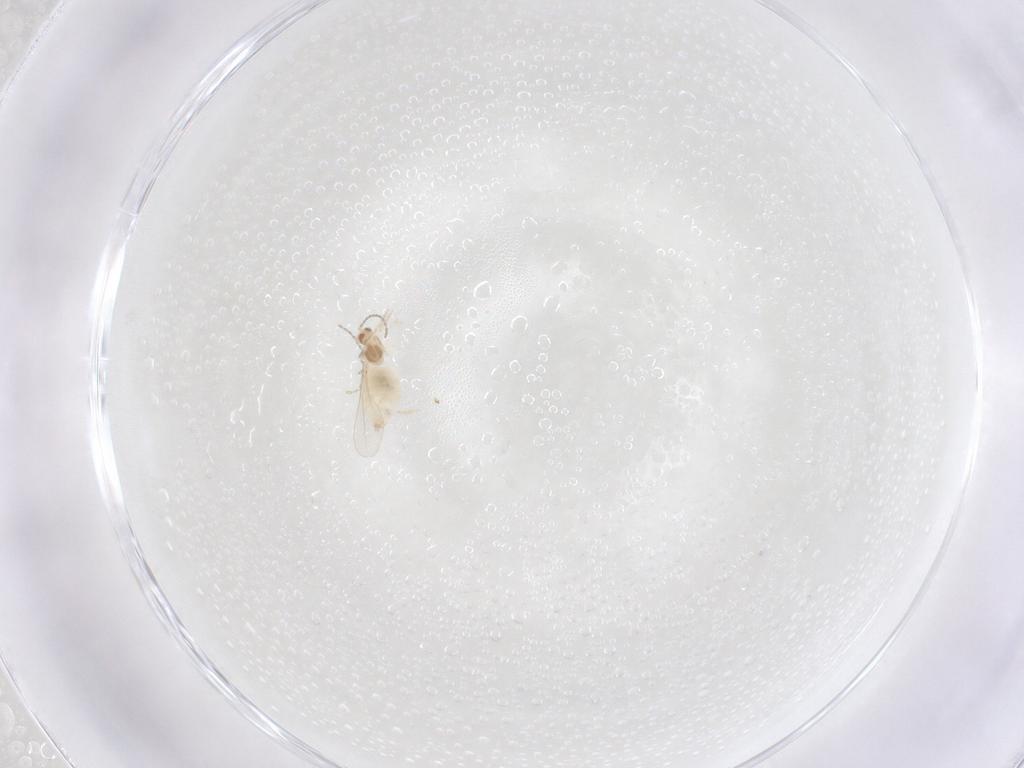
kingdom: Animalia
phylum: Arthropoda
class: Insecta
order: Diptera
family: Cecidomyiidae
